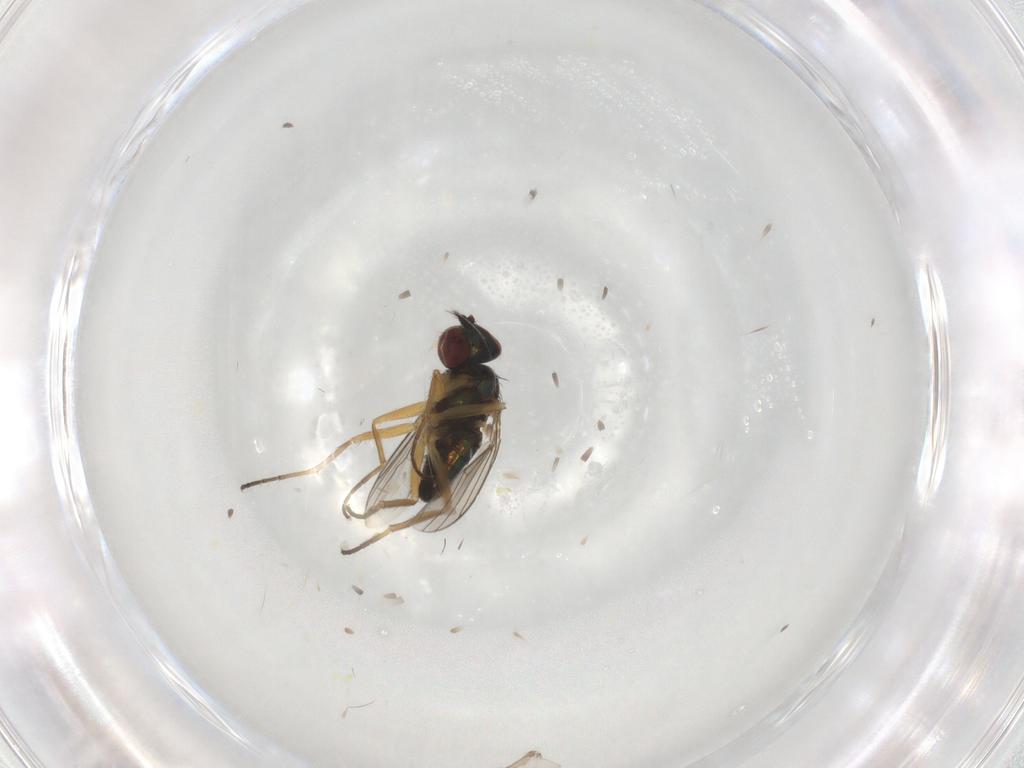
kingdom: Animalia
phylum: Arthropoda
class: Insecta
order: Diptera
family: Dolichopodidae
